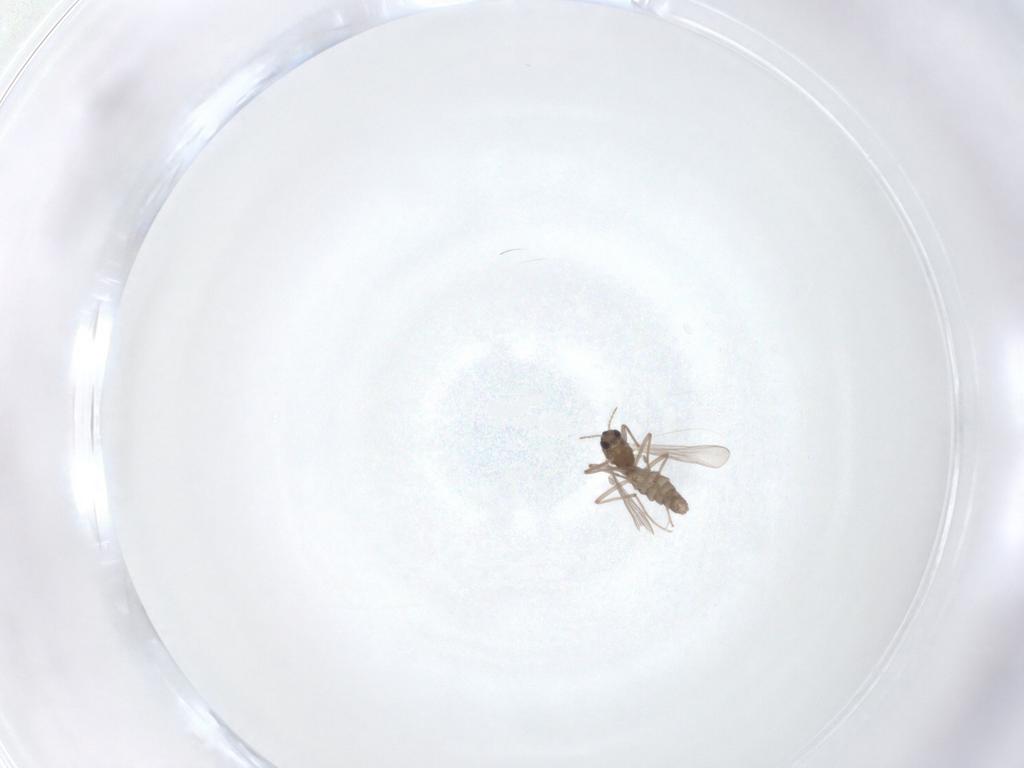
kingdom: Animalia
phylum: Arthropoda
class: Insecta
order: Diptera
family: Chironomidae
